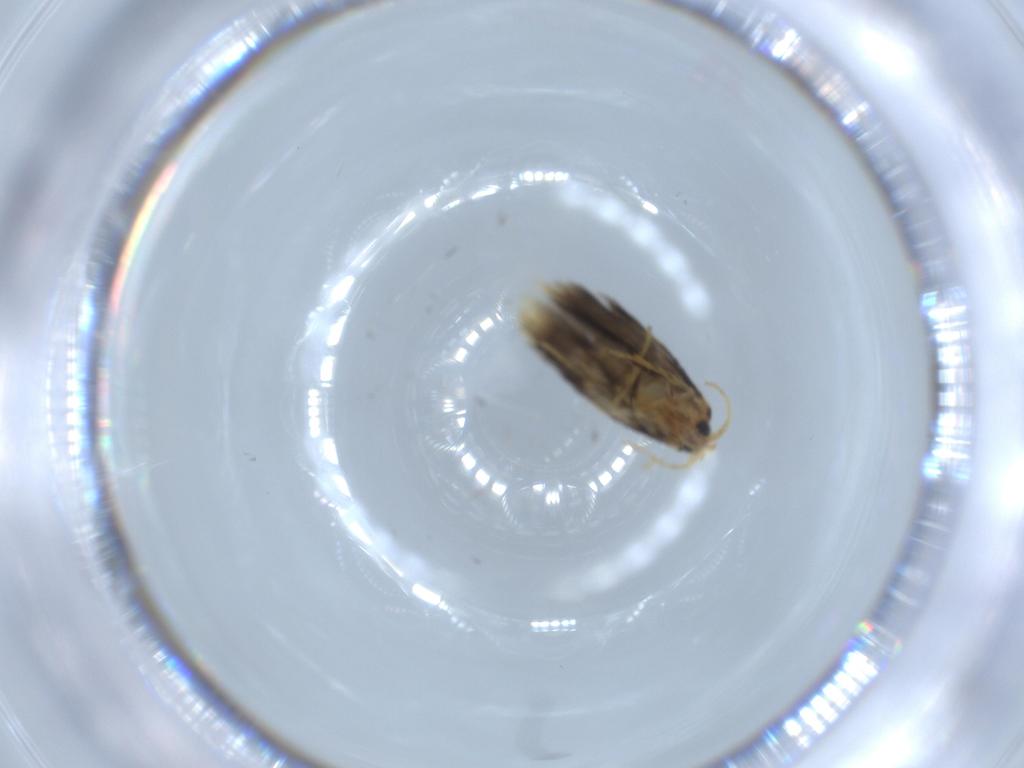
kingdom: Animalia
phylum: Arthropoda
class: Insecta
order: Lepidoptera
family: Copromorphidae
